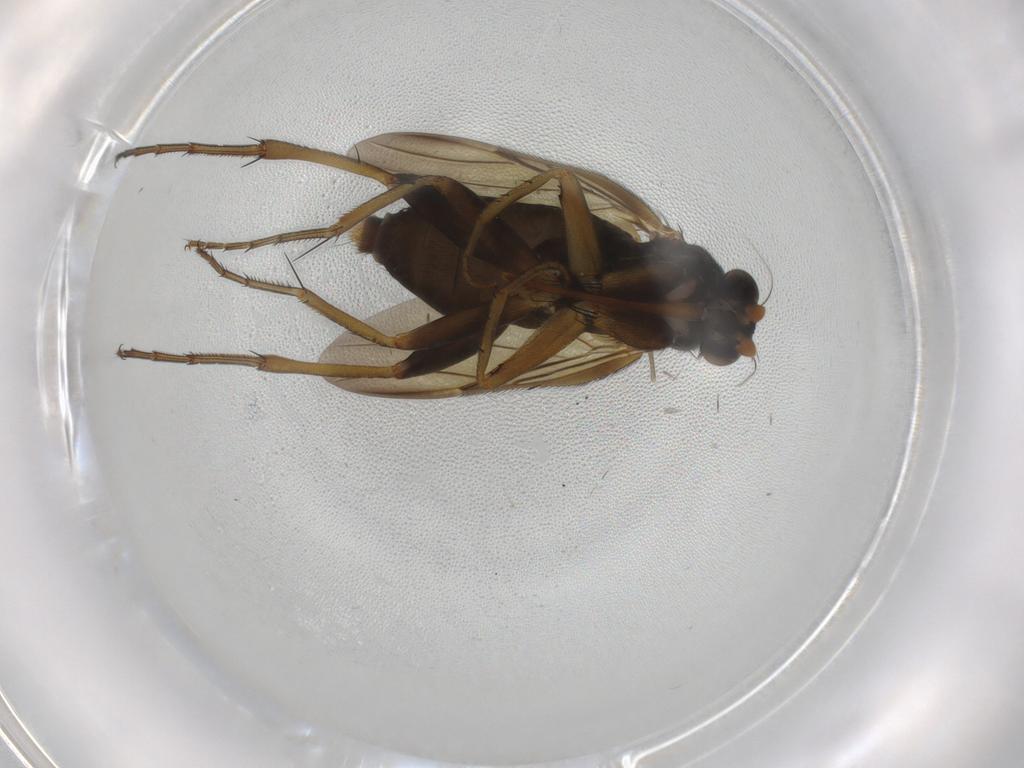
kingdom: Animalia
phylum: Arthropoda
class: Insecta
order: Diptera
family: Phoridae
